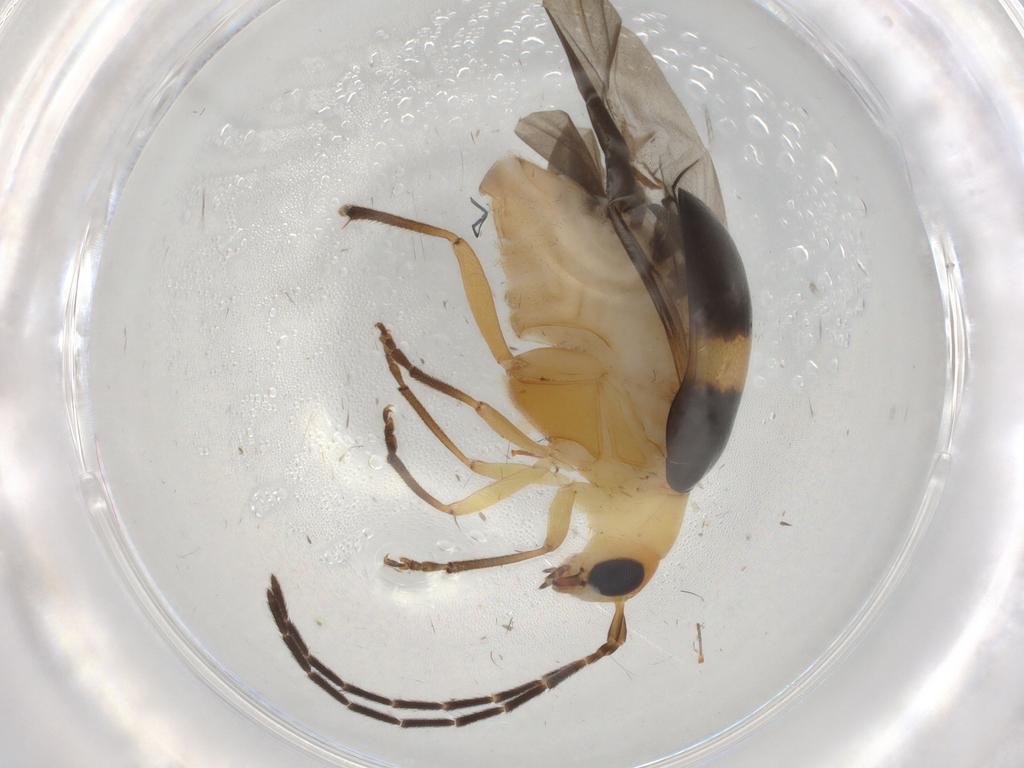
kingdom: Animalia
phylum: Arthropoda
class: Insecta
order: Coleoptera
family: Chrysomelidae
